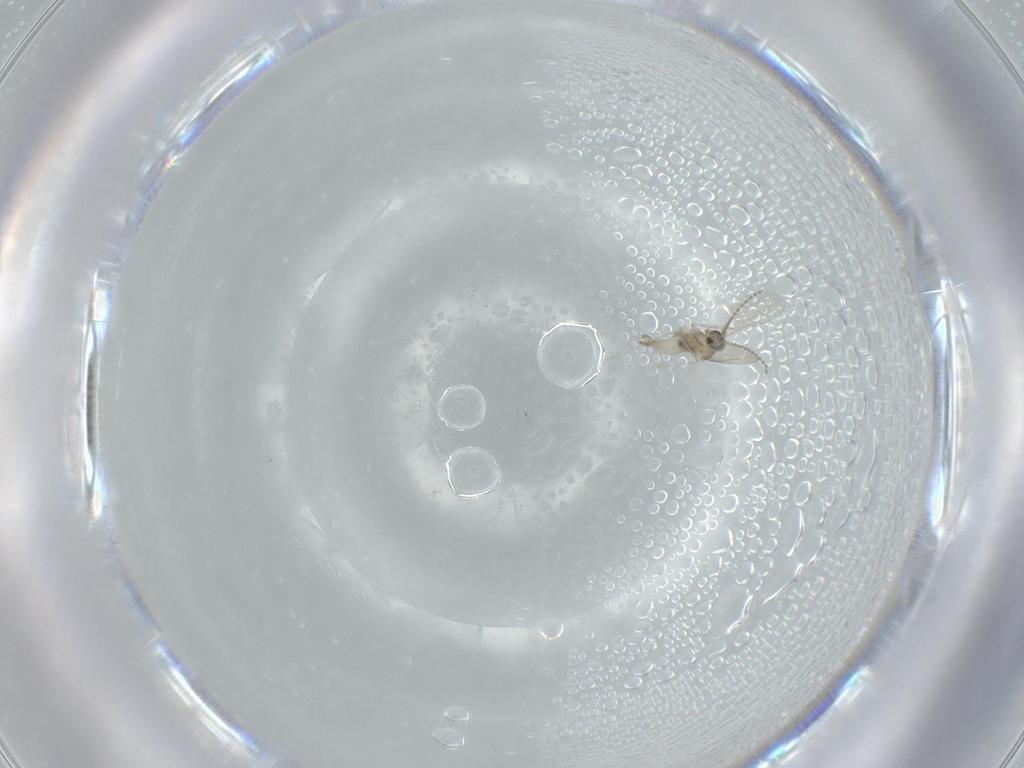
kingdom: Animalia
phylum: Arthropoda
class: Insecta
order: Diptera
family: Cecidomyiidae
